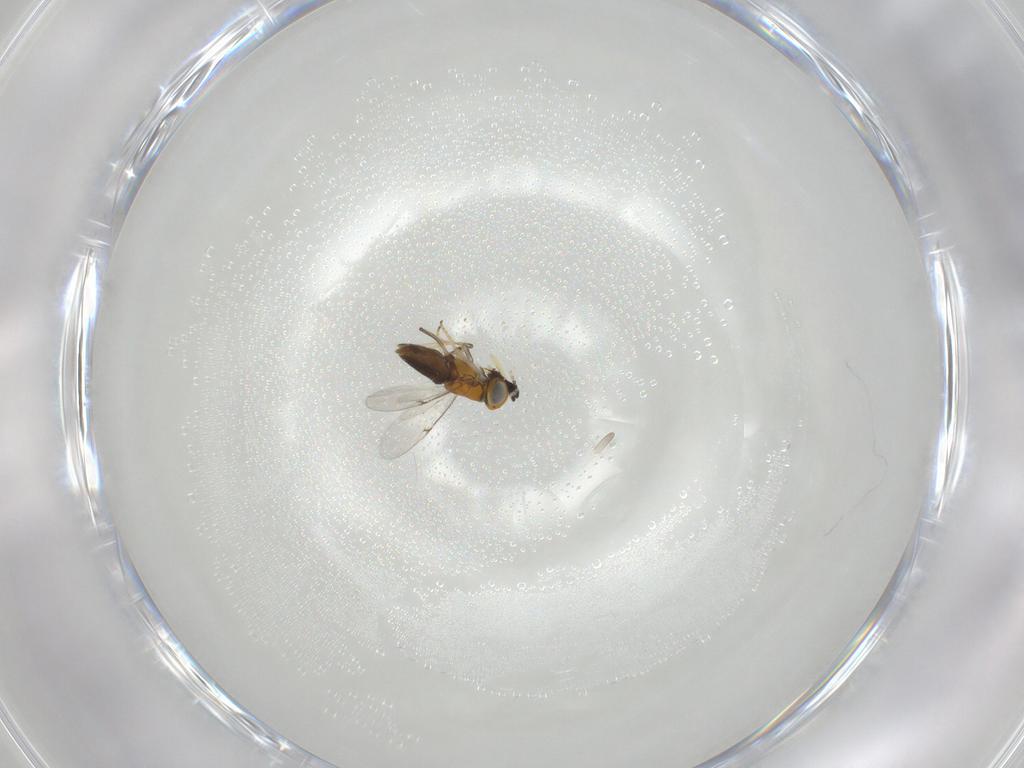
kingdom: Animalia
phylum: Arthropoda
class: Insecta
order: Hymenoptera
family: Encyrtidae
